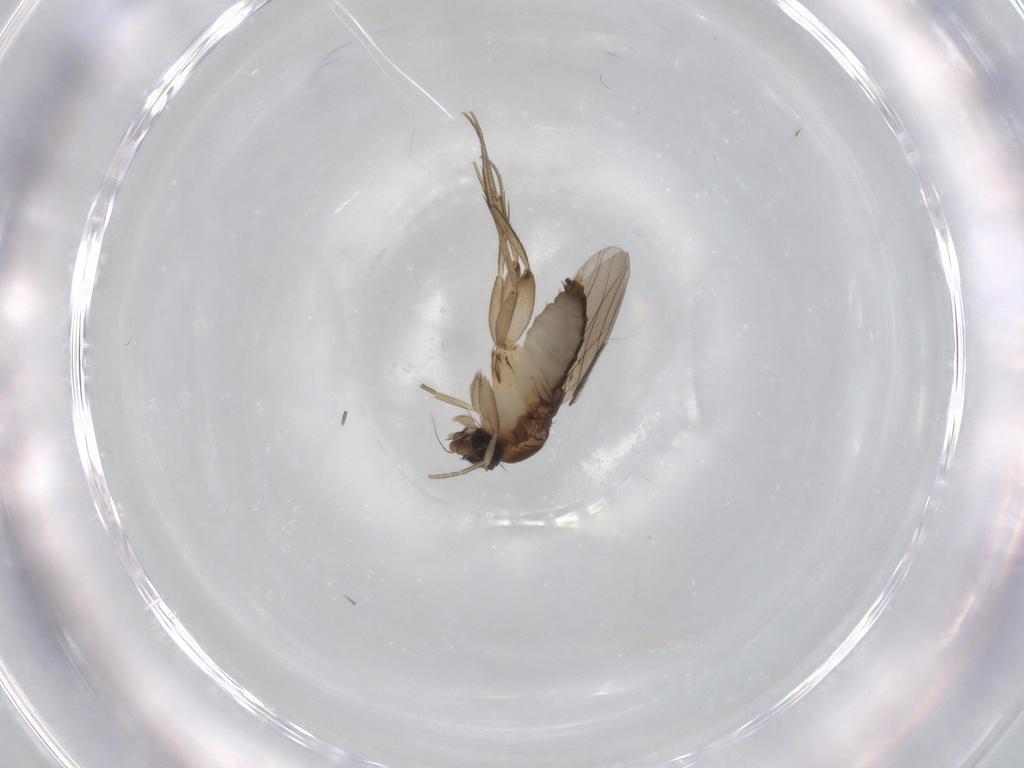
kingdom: Animalia
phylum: Arthropoda
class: Insecta
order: Diptera
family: Phoridae
